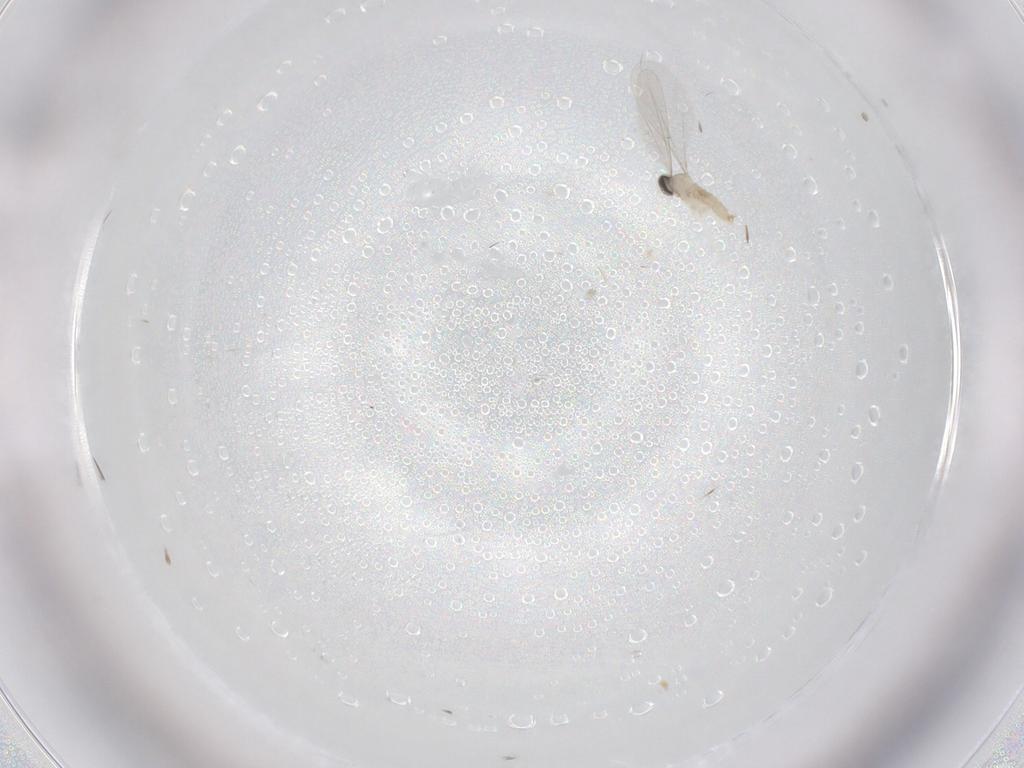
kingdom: Animalia
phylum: Arthropoda
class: Insecta
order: Diptera
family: Cecidomyiidae
